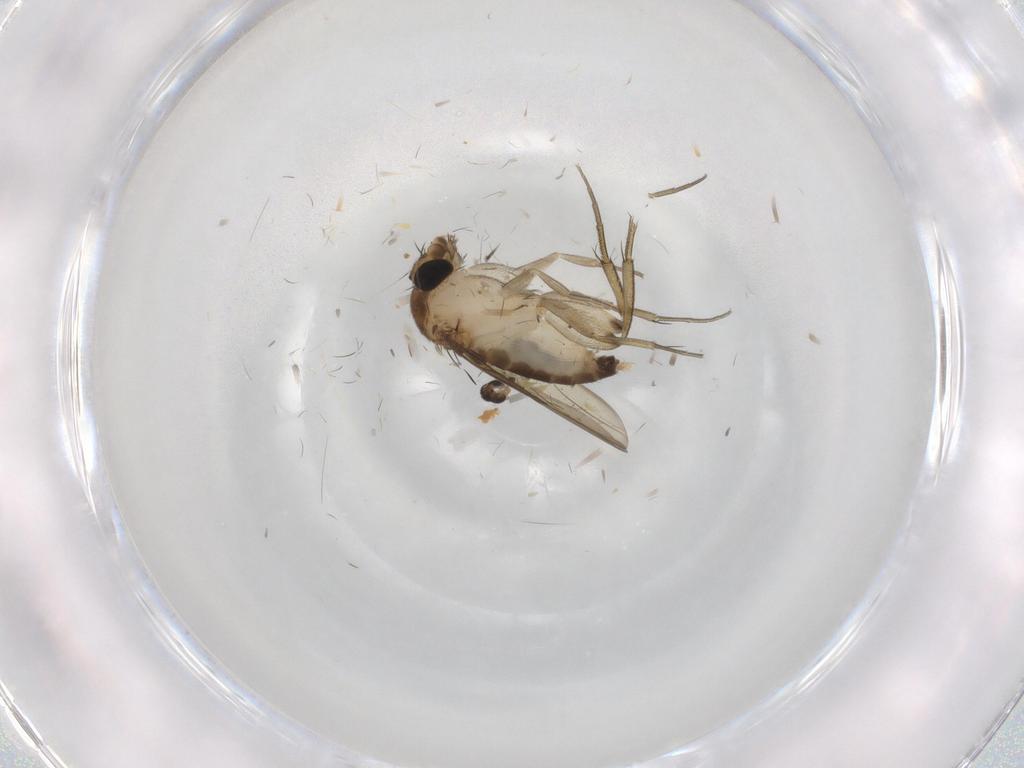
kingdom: Animalia
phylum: Arthropoda
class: Insecta
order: Diptera
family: Phoridae
